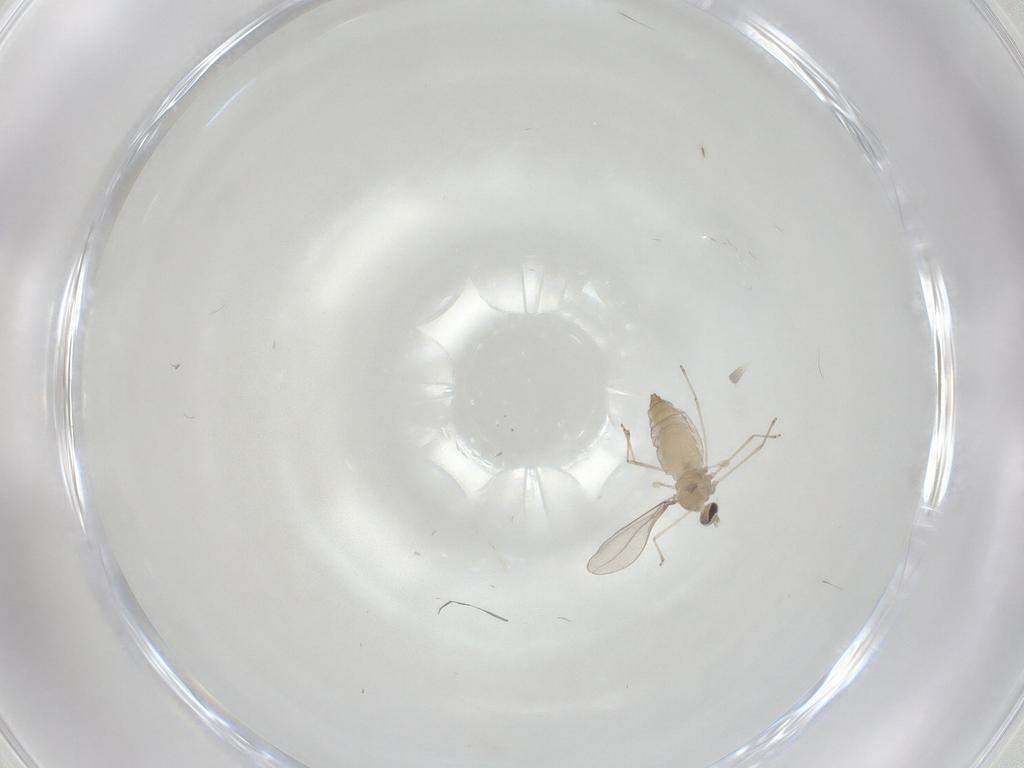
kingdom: Animalia
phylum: Arthropoda
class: Insecta
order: Diptera
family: Cecidomyiidae
